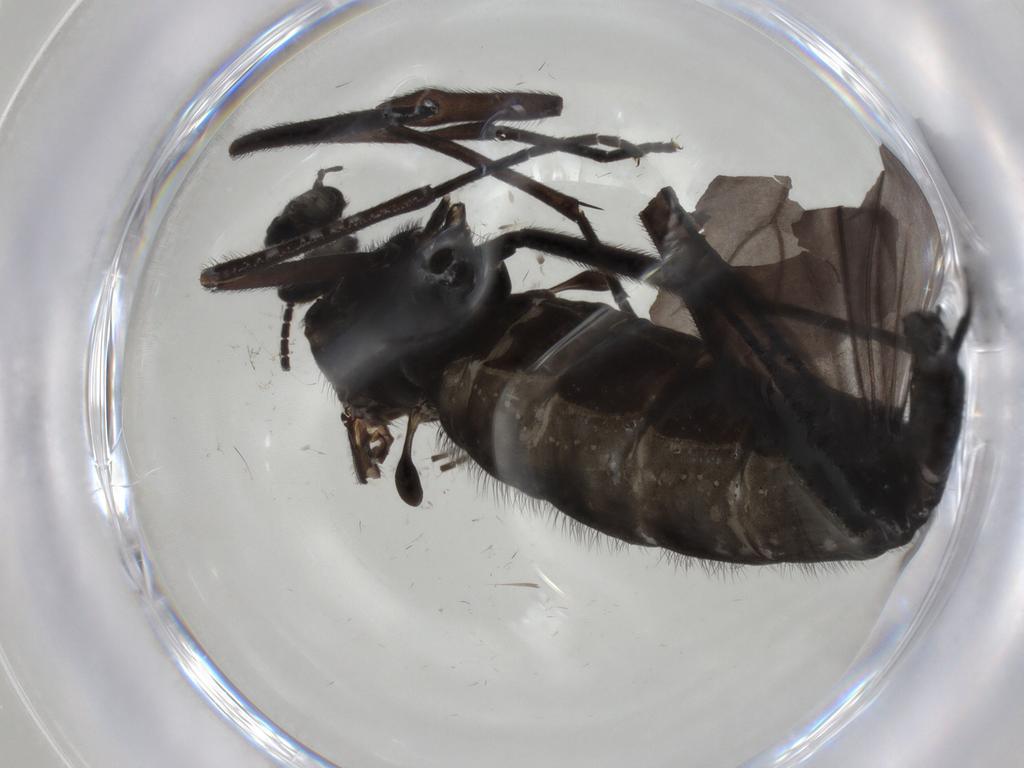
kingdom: Animalia
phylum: Arthropoda
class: Insecta
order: Diptera
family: Sciaridae
